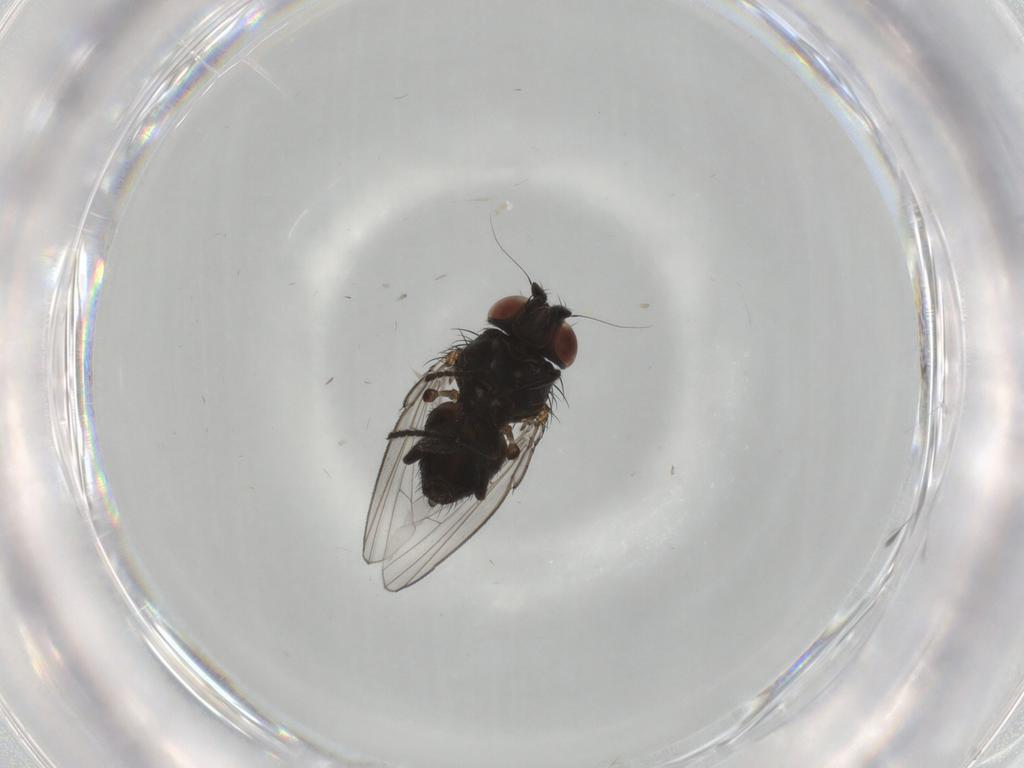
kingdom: Animalia
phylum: Arthropoda
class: Insecta
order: Diptera
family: Milichiidae
